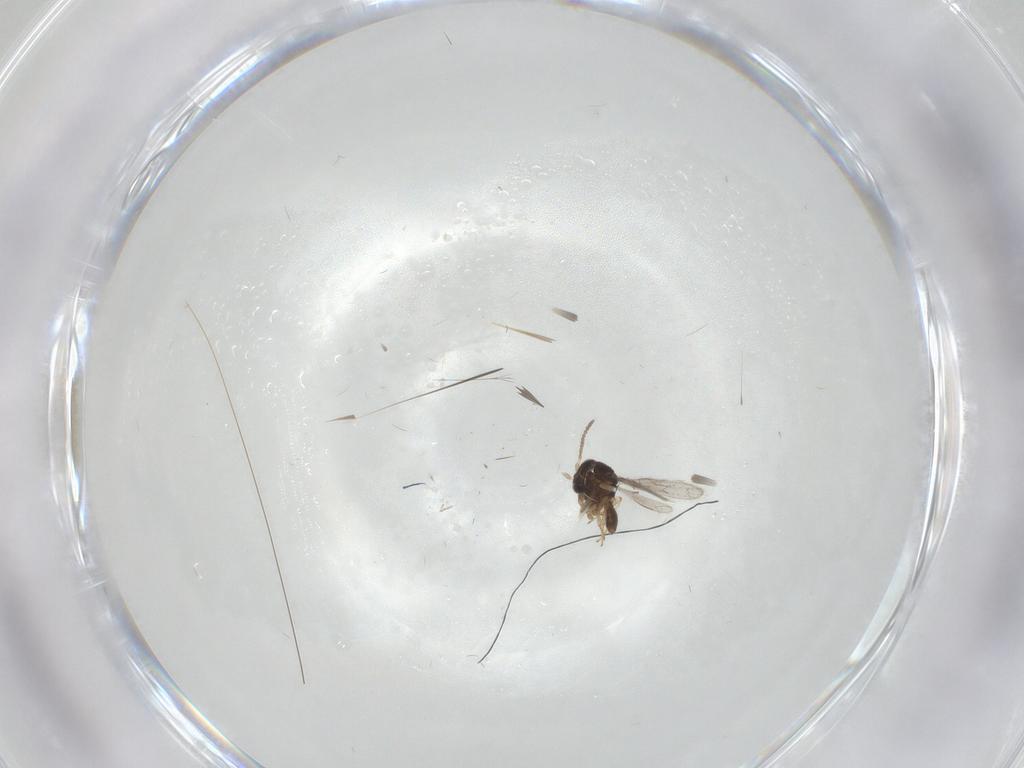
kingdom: Animalia
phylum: Arthropoda
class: Insecta
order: Hymenoptera
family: Scelionidae
